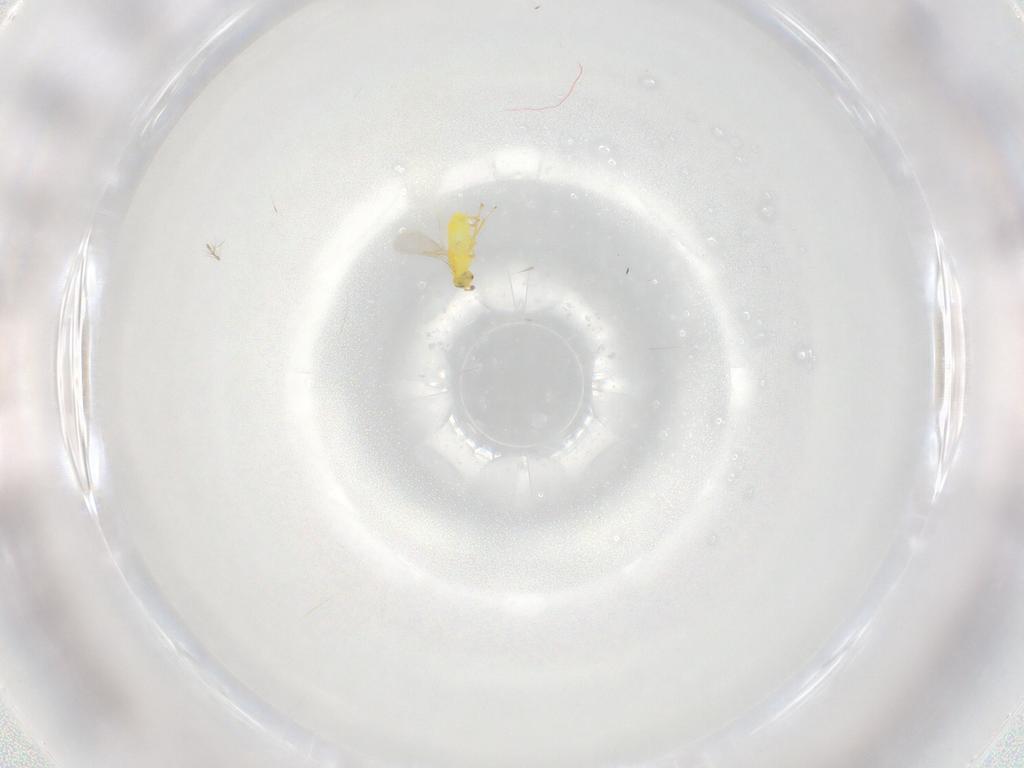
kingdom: Animalia
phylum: Arthropoda
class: Insecta
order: Hymenoptera
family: Aphelinidae
